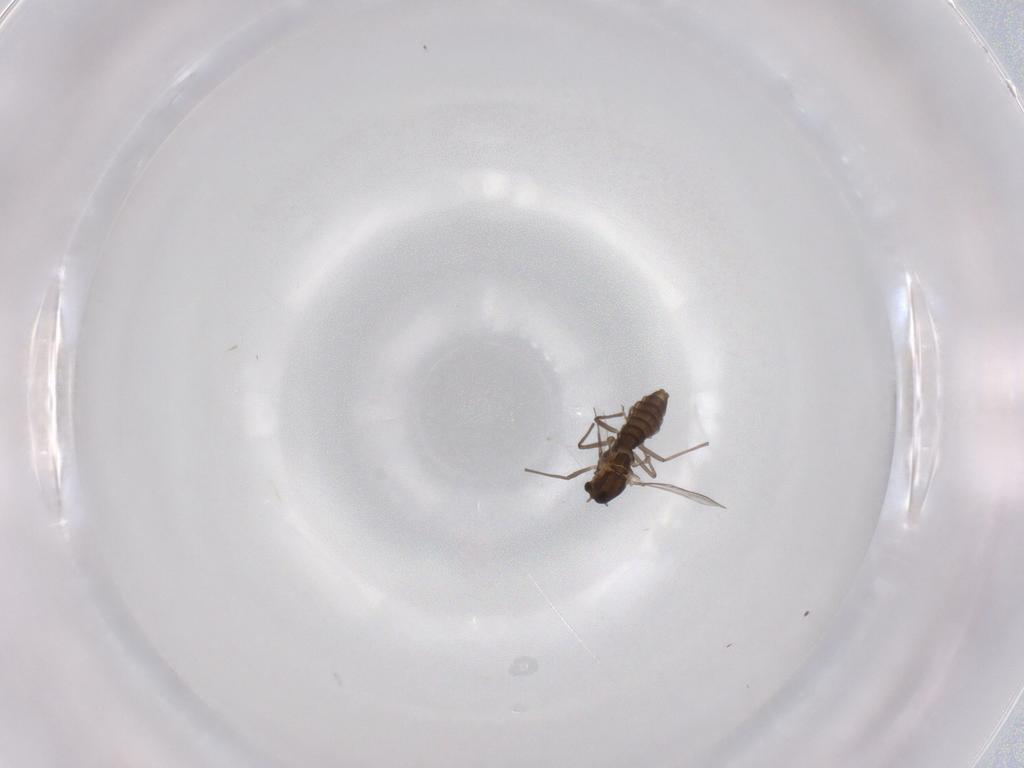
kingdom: Animalia
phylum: Arthropoda
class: Insecta
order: Diptera
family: Chironomidae
